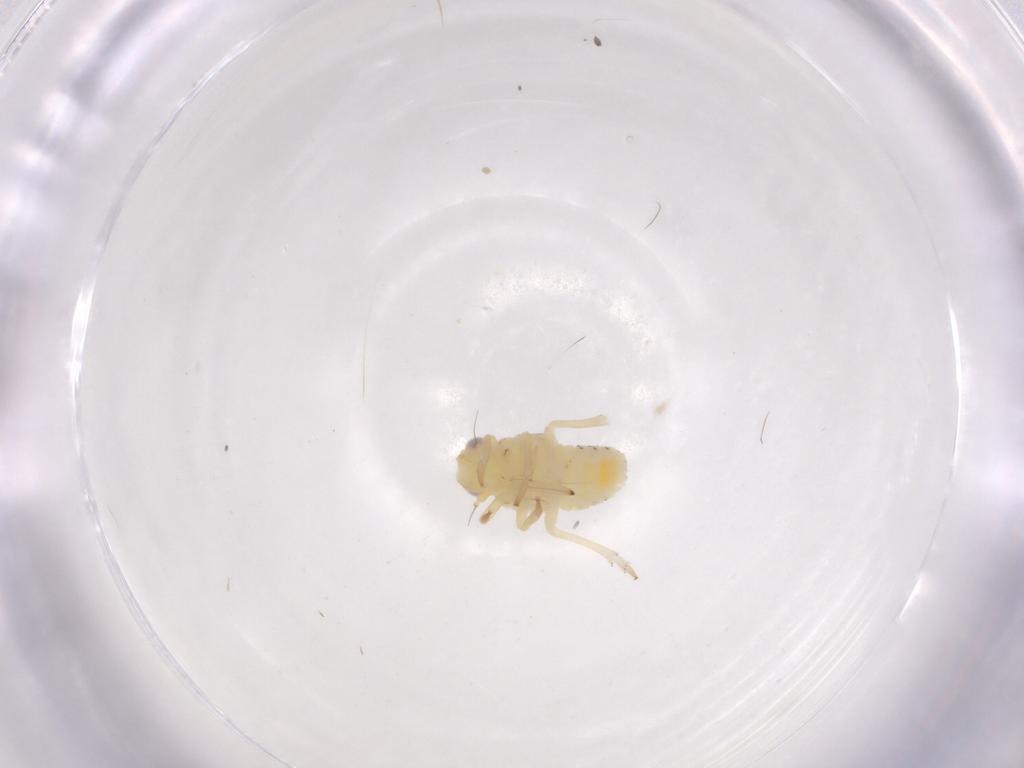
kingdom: Animalia
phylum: Arthropoda
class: Insecta
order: Hemiptera
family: Tropiduchidae
